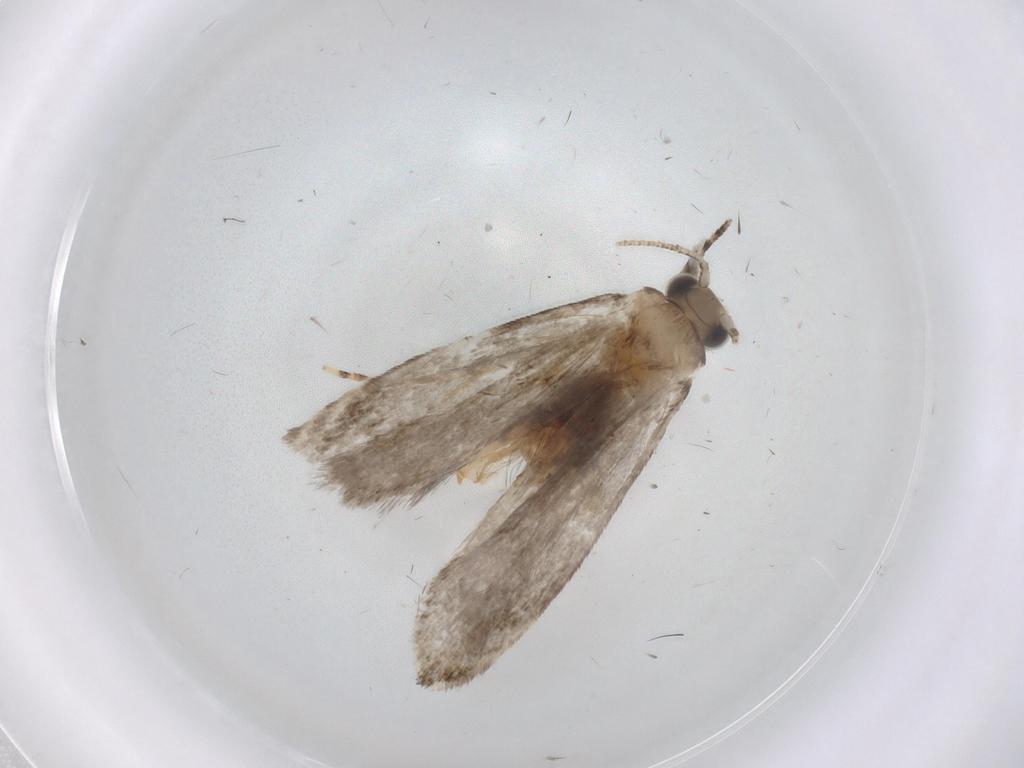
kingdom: Animalia
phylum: Arthropoda
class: Insecta
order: Lepidoptera
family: Tineidae
